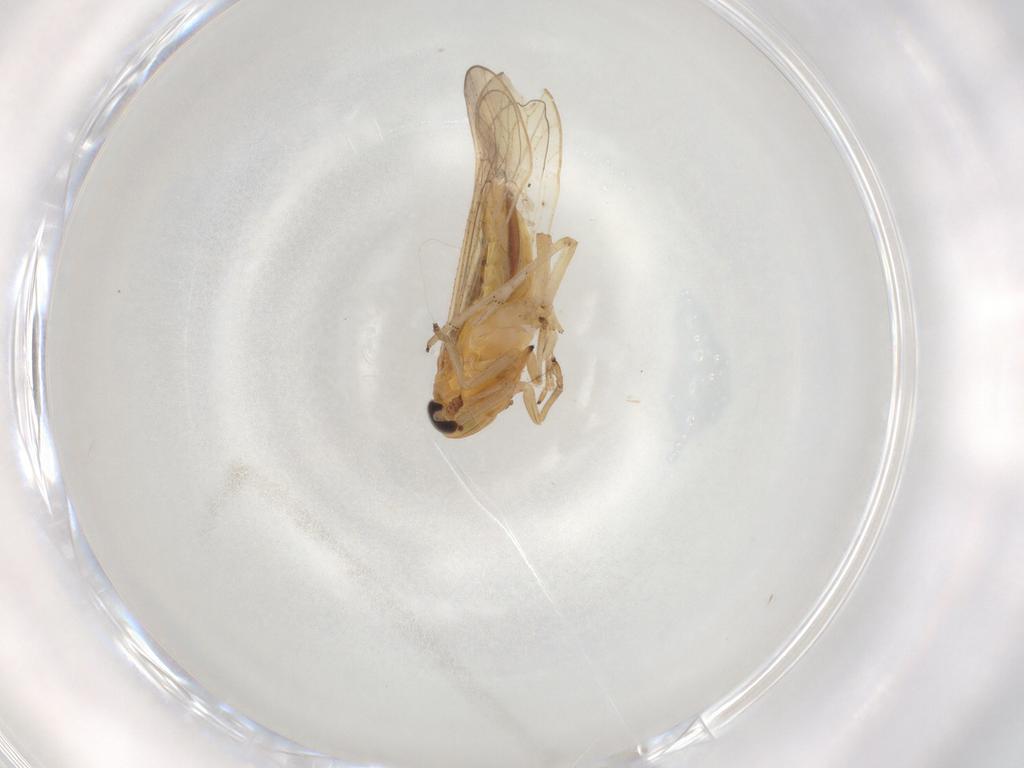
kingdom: Animalia
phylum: Arthropoda
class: Insecta
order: Hemiptera
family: Delphacidae
